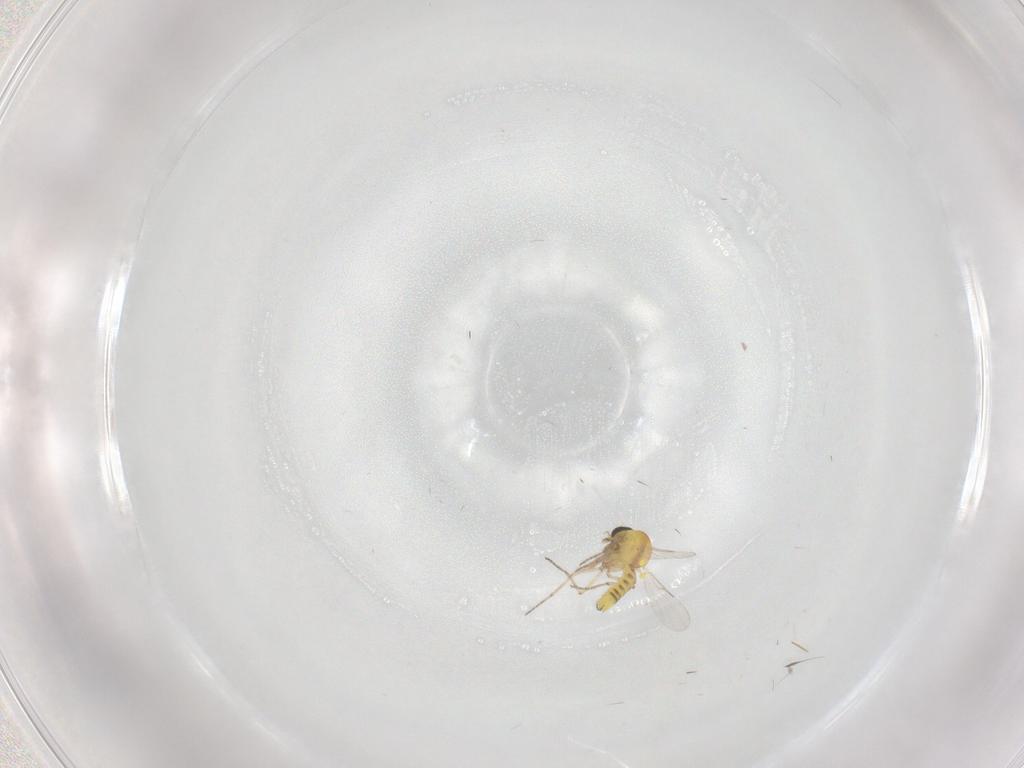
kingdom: Animalia
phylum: Arthropoda
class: Insecta
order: Diptera
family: Ceratopogonidae
